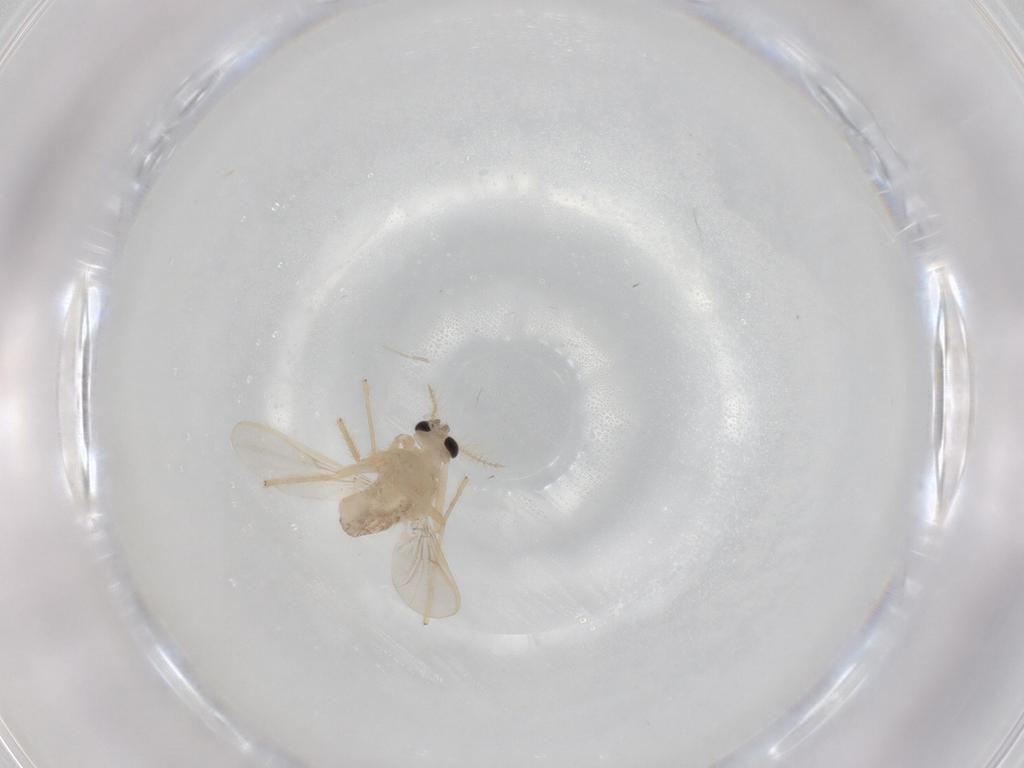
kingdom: Animalia
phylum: Arthropoda
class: Insecta
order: Diptera
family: Chironomidae
